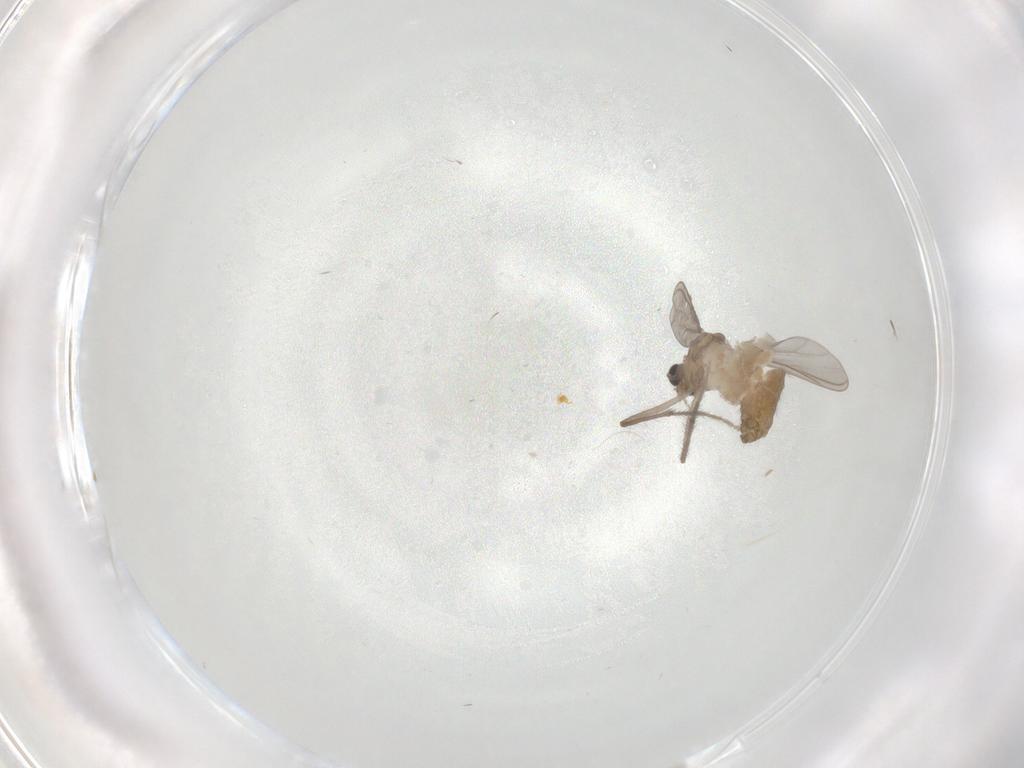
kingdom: Animalia
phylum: Arthropoda
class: Insecta
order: Diptera
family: Chironomidae
